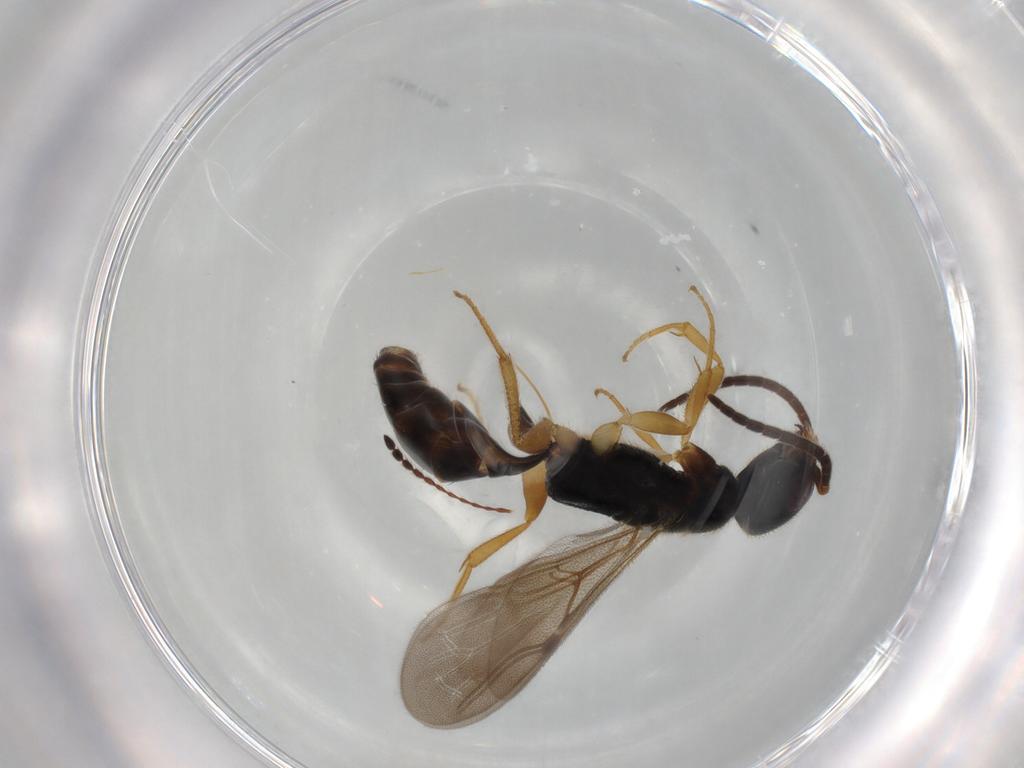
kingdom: Animalia
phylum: Arthropoda
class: Insecta
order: Hymenoptera
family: Bethylidae
